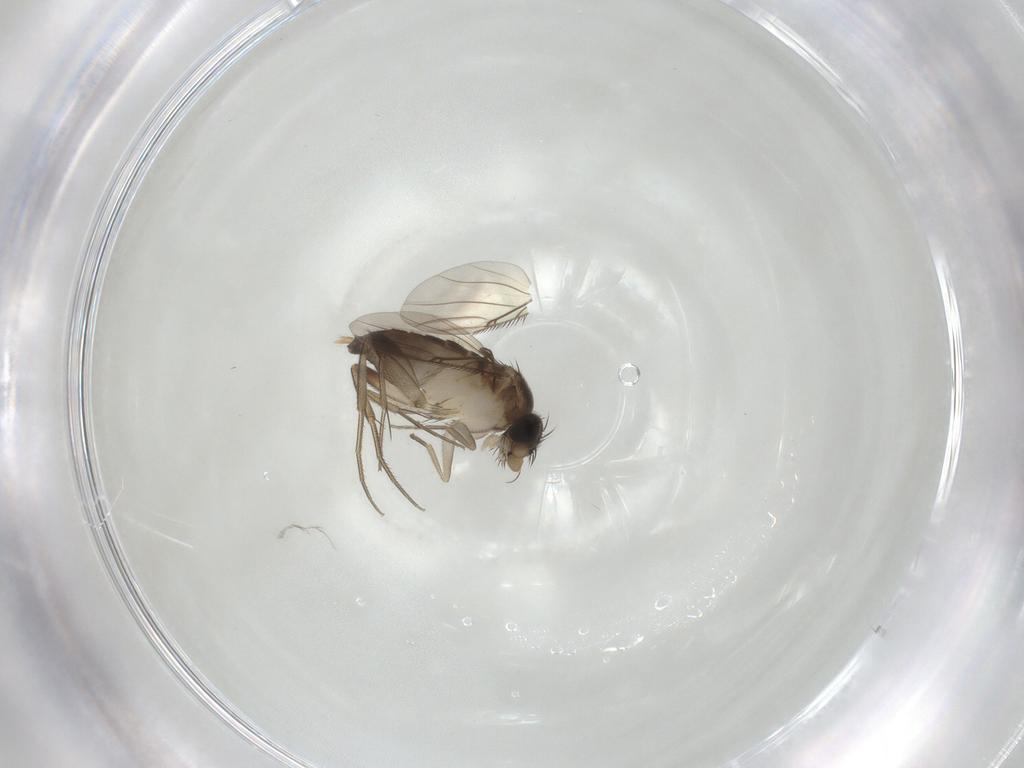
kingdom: Animalia
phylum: Arthropoda
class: Insecta
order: Diptera
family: Phoridae
